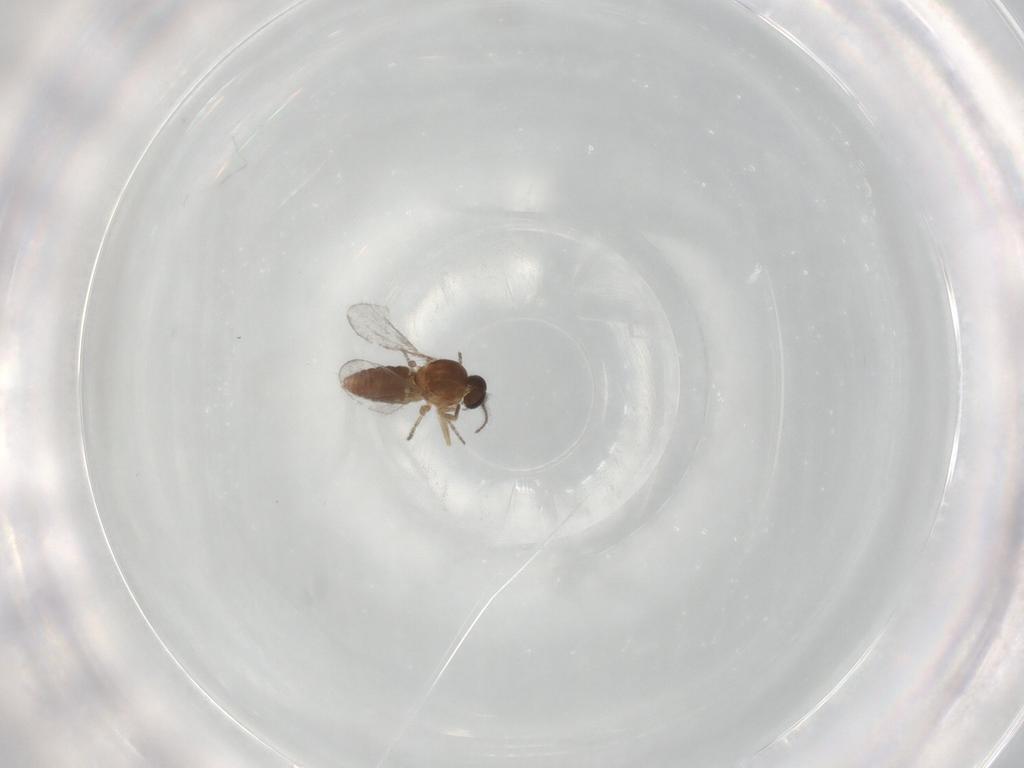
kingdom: Animalia
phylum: Arthropoda
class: Insecta
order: Diptera
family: Ceratopogonidae
